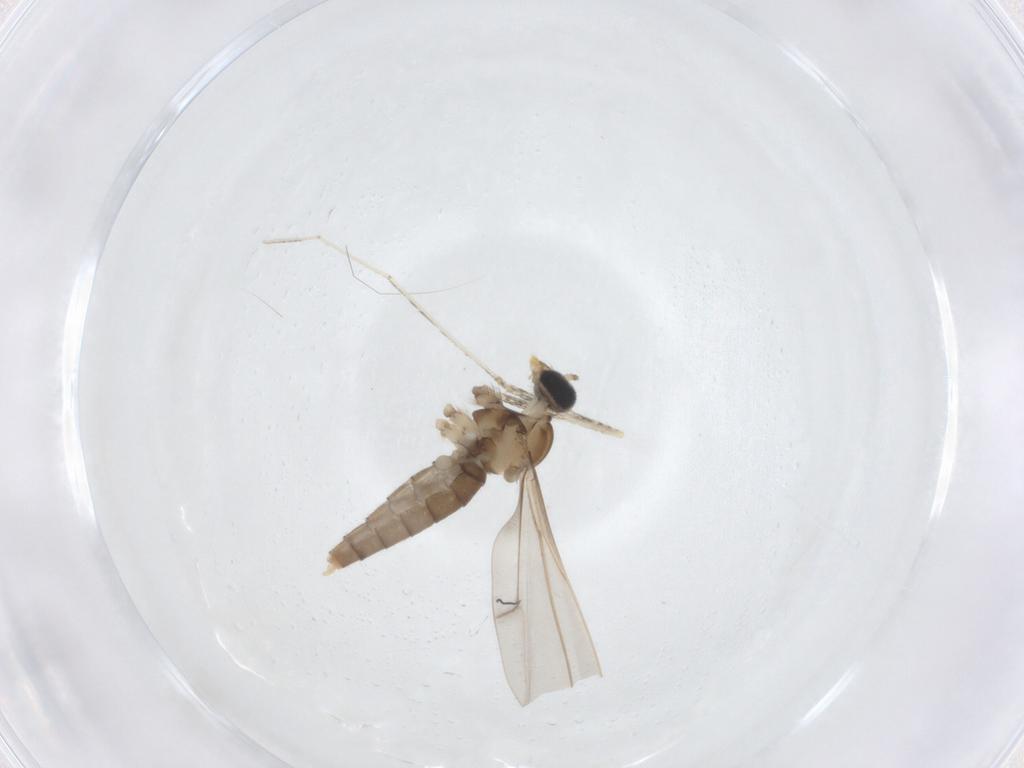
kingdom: Animalia
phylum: Arthropoda
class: Insecta
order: Diptera
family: Cecidomyiidae
